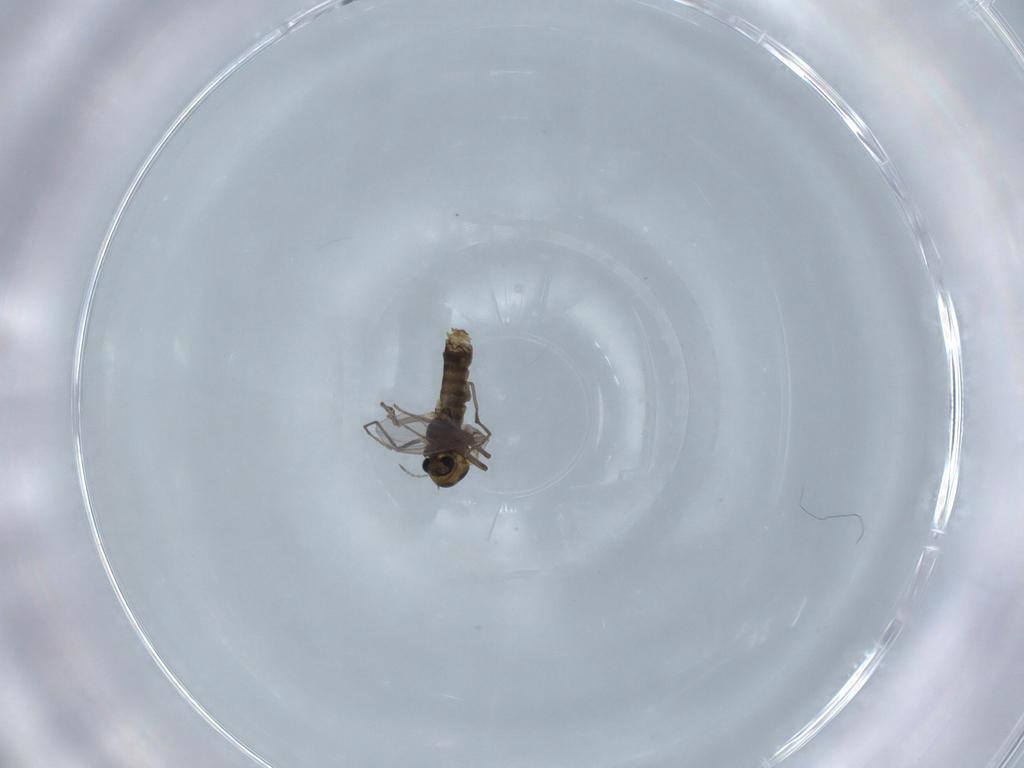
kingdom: Animalia
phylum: Arthropoda
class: Insecta
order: Diptera
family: Chironomidae
